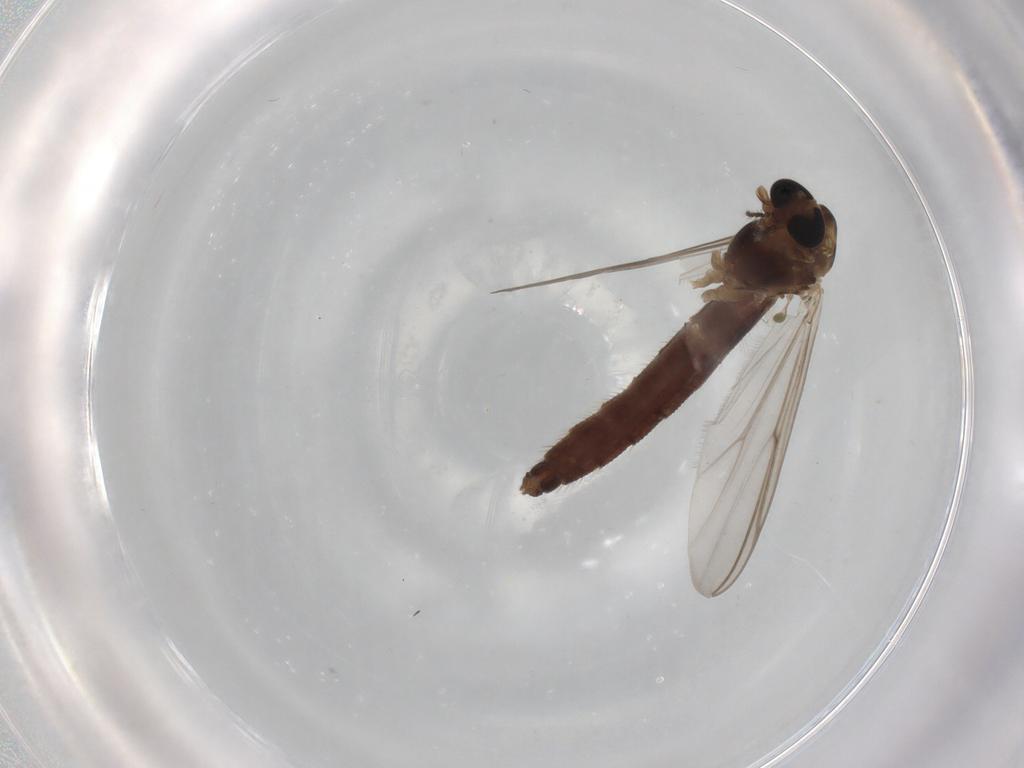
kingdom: Animalia
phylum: Arthropoda
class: Insecta
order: Diptera
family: Chironomidae
